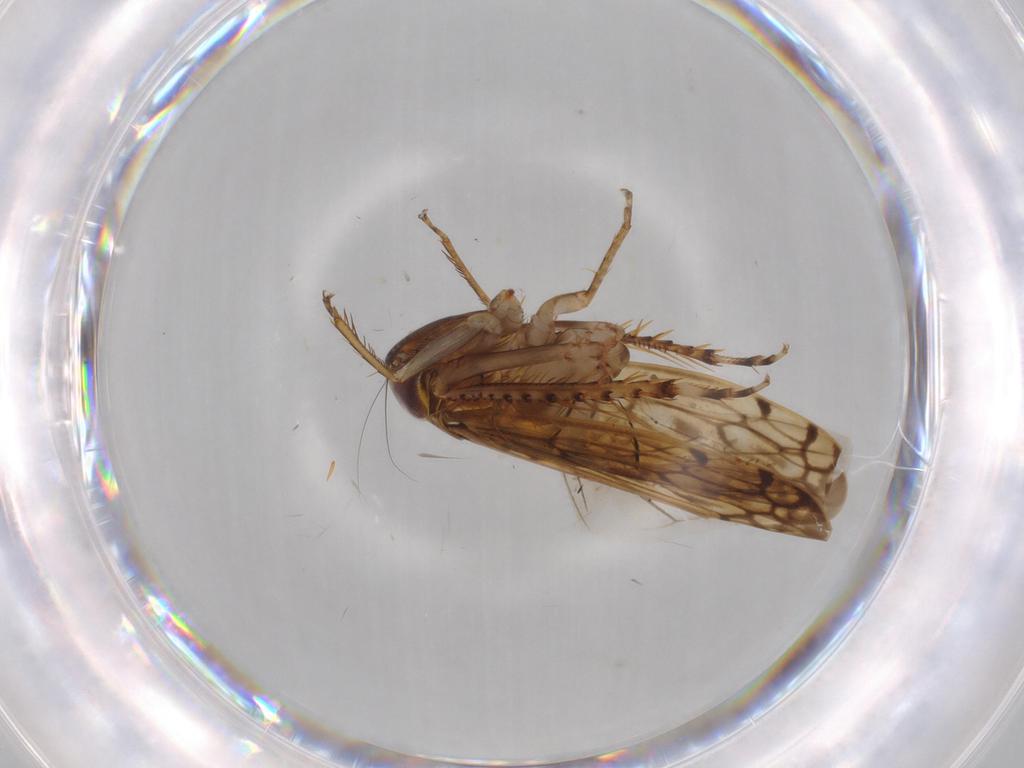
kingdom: Animalia
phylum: Arthropoda
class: Insecta
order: Hemiptera
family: Cicadellidae
